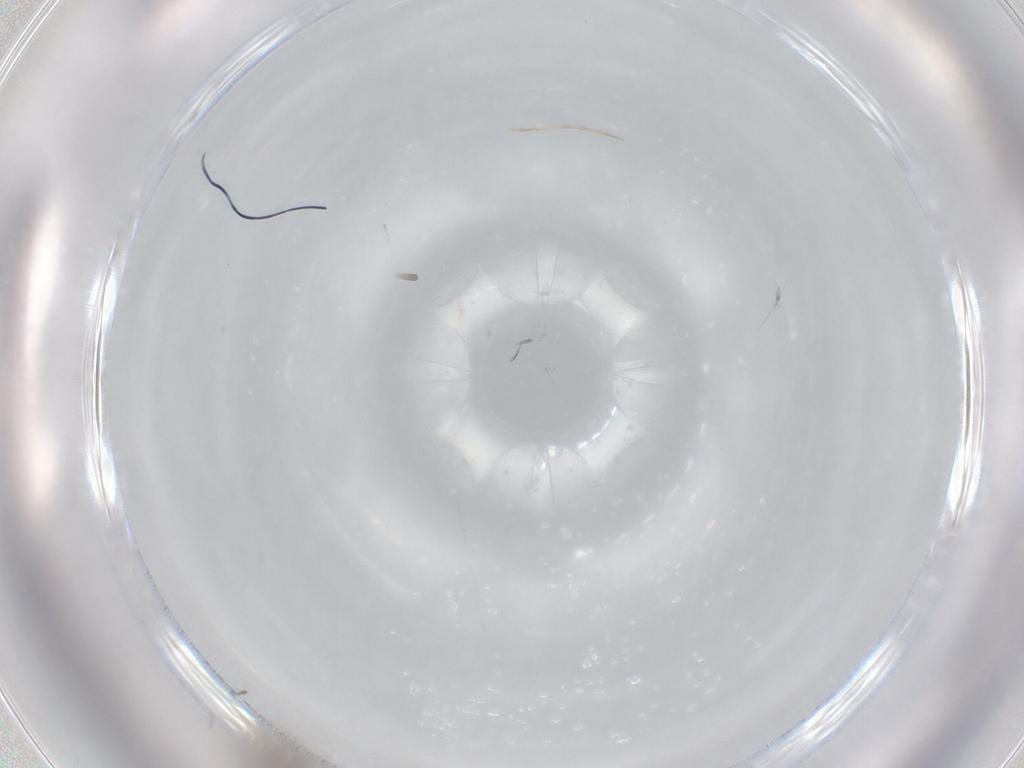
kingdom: Animalia
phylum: Arthropoda
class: Insecta
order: Diptera
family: Cecidomyiidae
